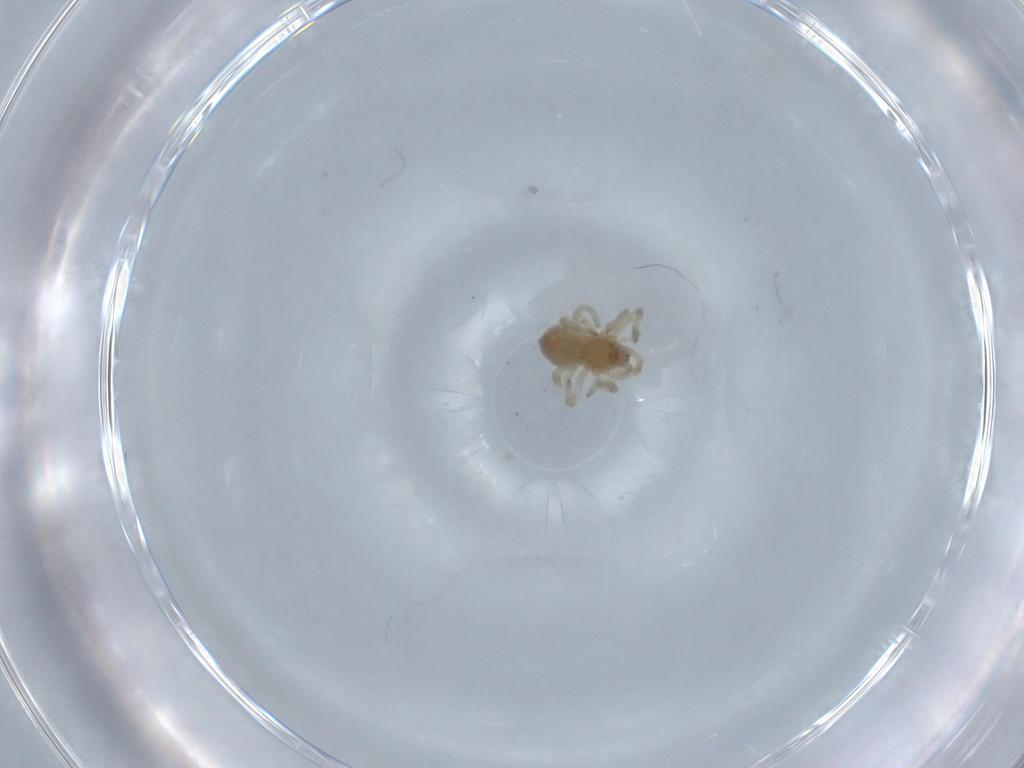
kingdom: Animalia
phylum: Arthropoda
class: Arachnida
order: Araneae
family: Dictynidae
